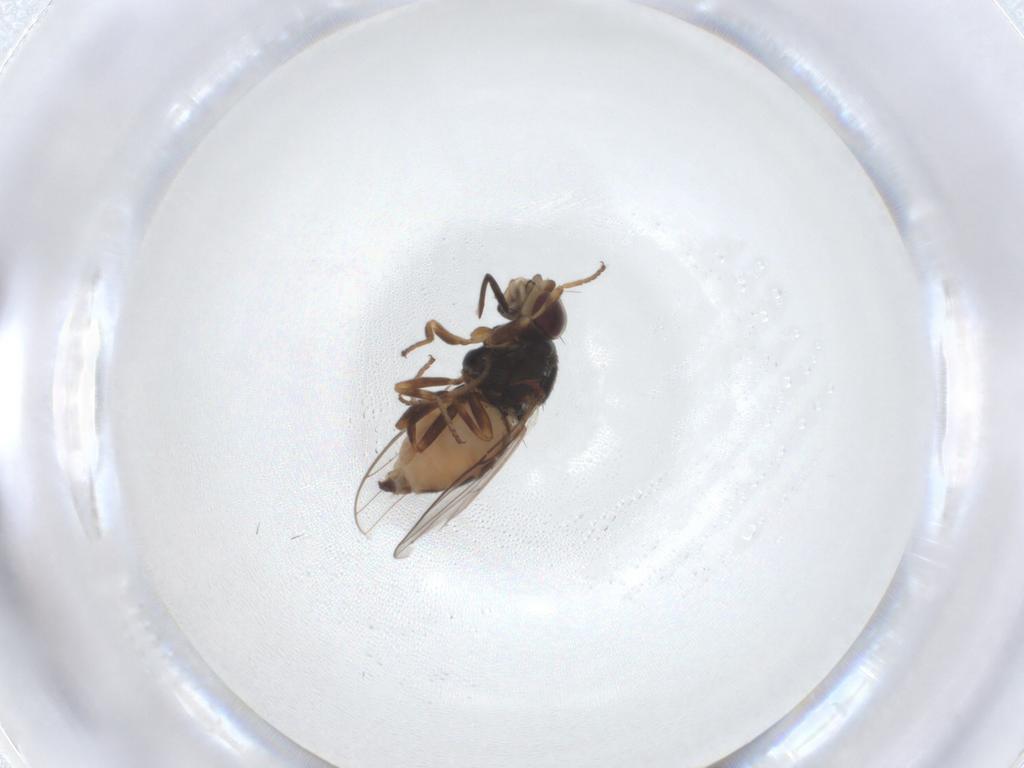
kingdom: Animalia
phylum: Arthropoda
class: Insecta
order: Diptera
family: Chloropidae
